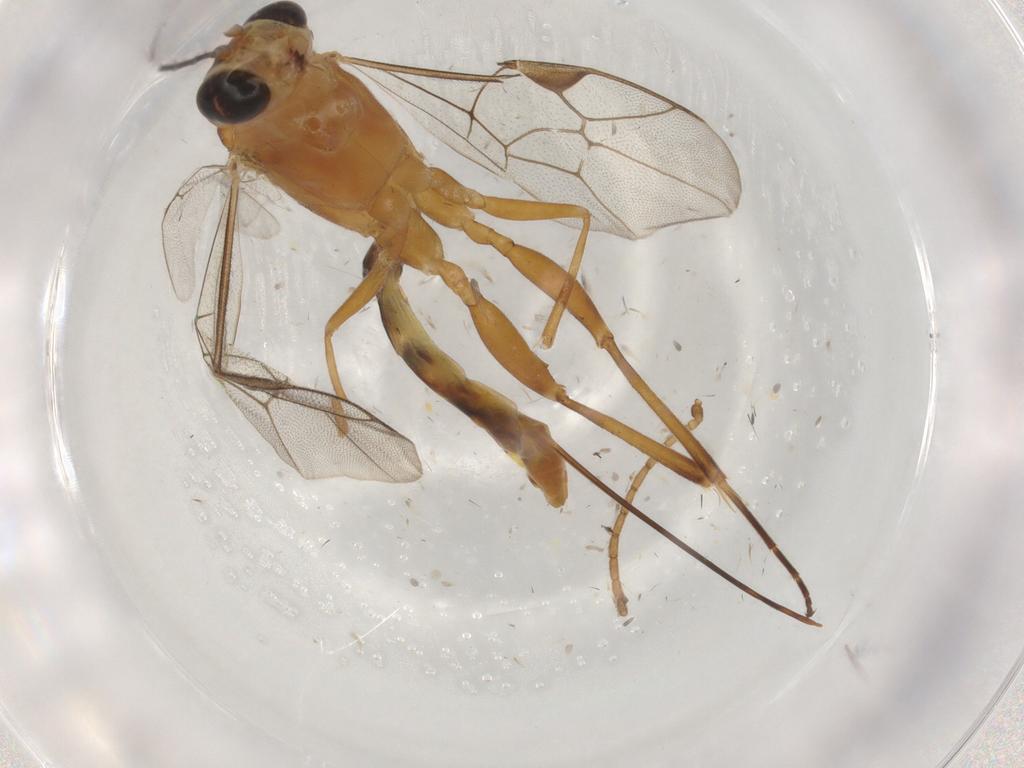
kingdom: Animalia
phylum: Arthropoda
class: Insecta
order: Hymenoptera
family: Ichneumonidae
